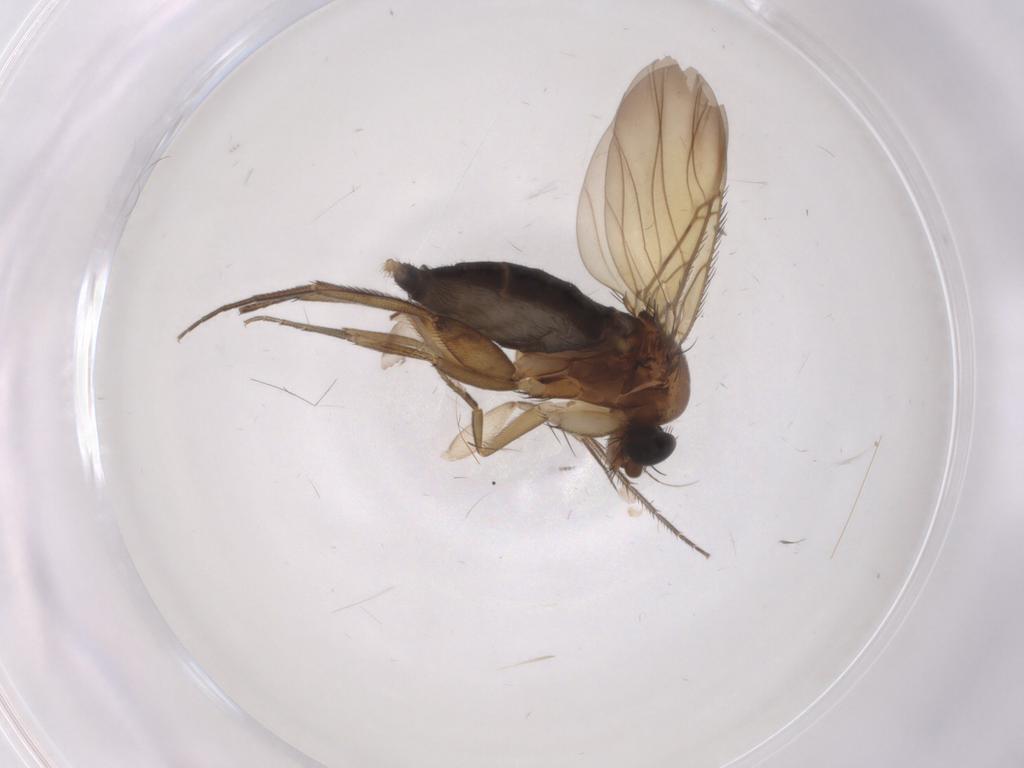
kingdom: Animalia
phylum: Arthropoda
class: Insecta
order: Diptera
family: Phoridae
